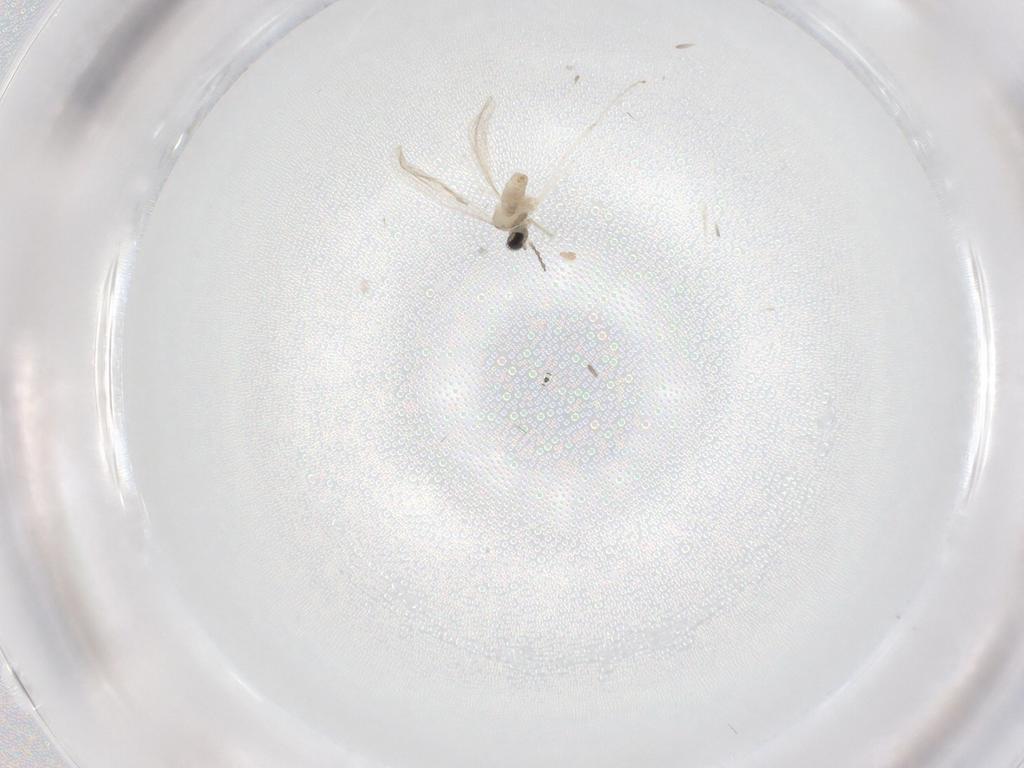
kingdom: Animalia
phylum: Arthropoda
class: Insecta
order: Diptera
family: Cecidomyiidae
